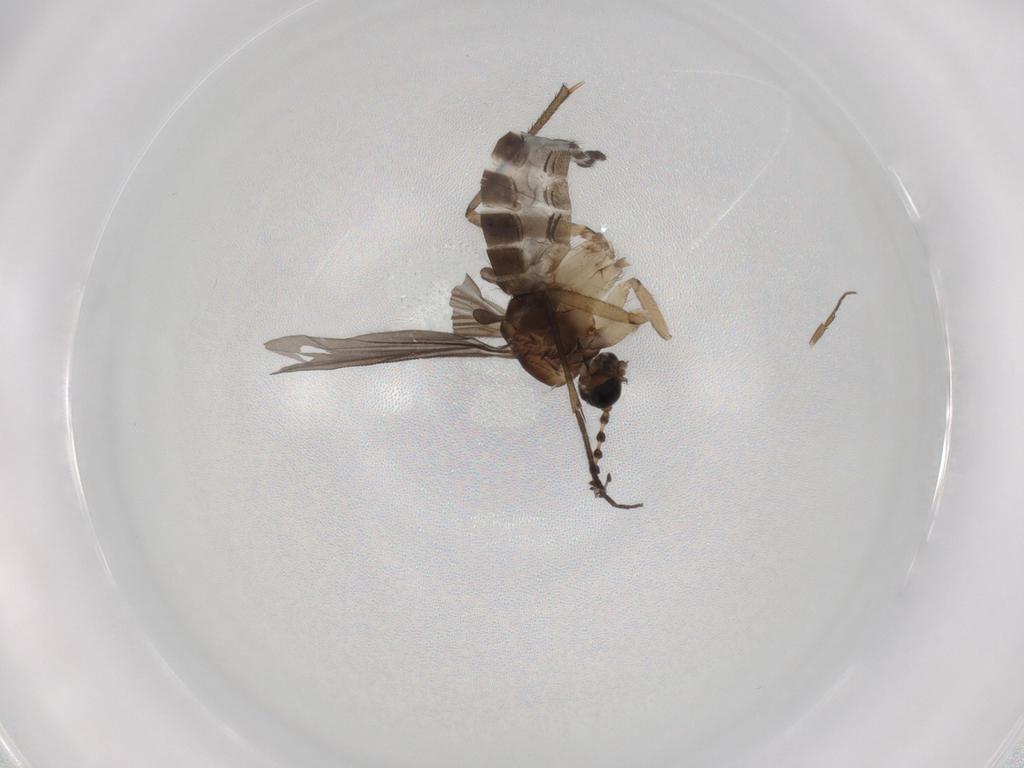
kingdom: Animalia
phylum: Arthropoda
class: Insecta
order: Diptera
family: Sciaridae
